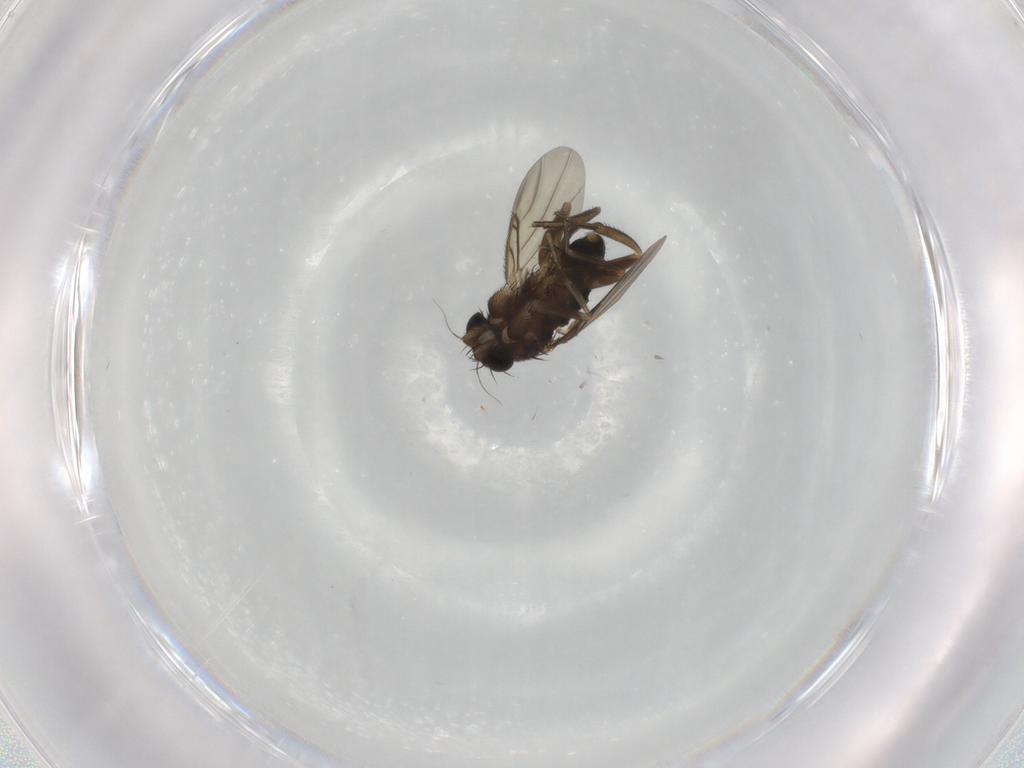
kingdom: Animalia
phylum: Arthropoda
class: Insecta
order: Diptera
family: Phoridae
